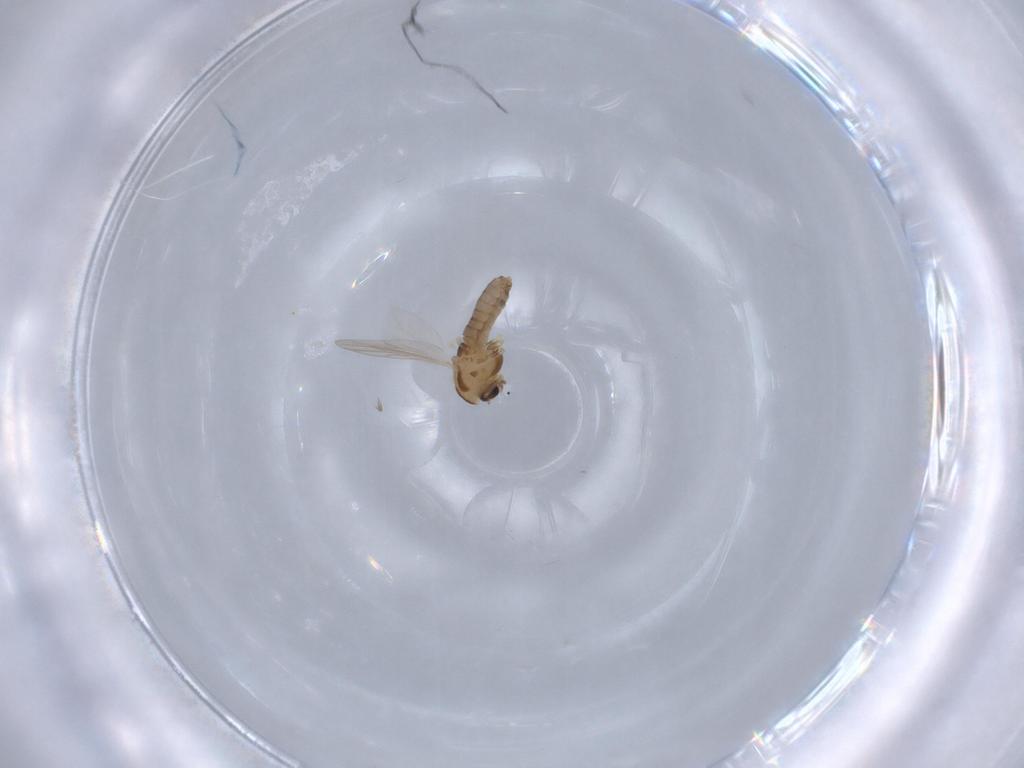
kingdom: Animalia
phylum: Arthropoda
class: Insecta
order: Diptera
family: Chironomidae
